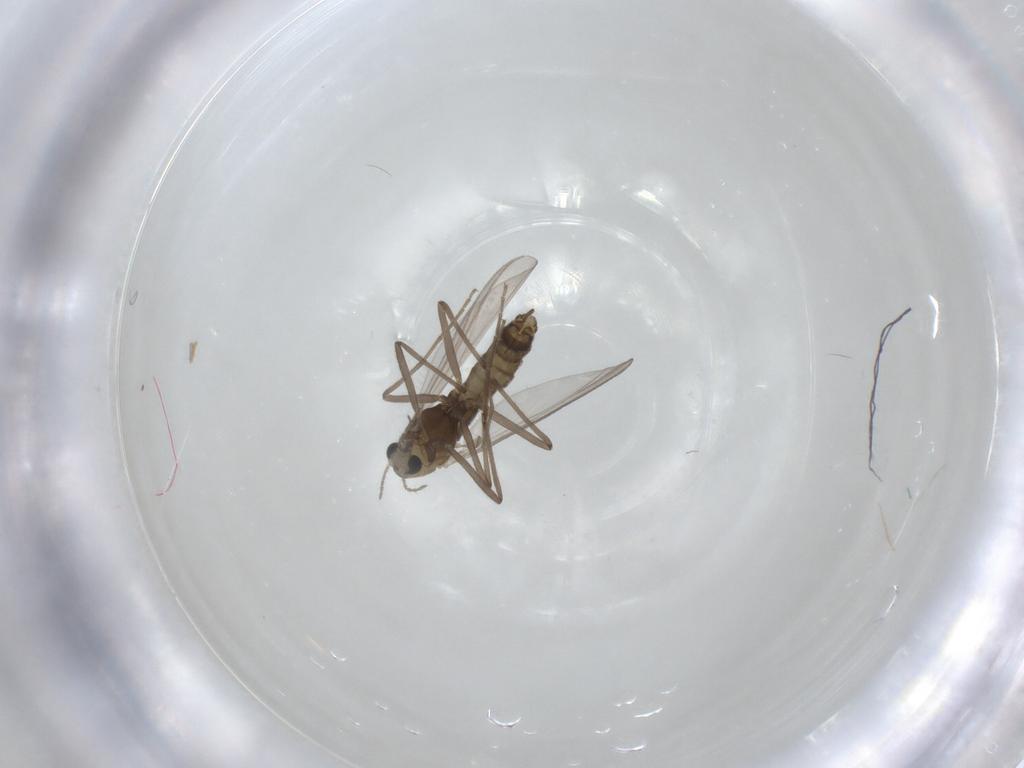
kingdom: Animalia
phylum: Arthropoda
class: Insecta
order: Diptera
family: Chironomidae
